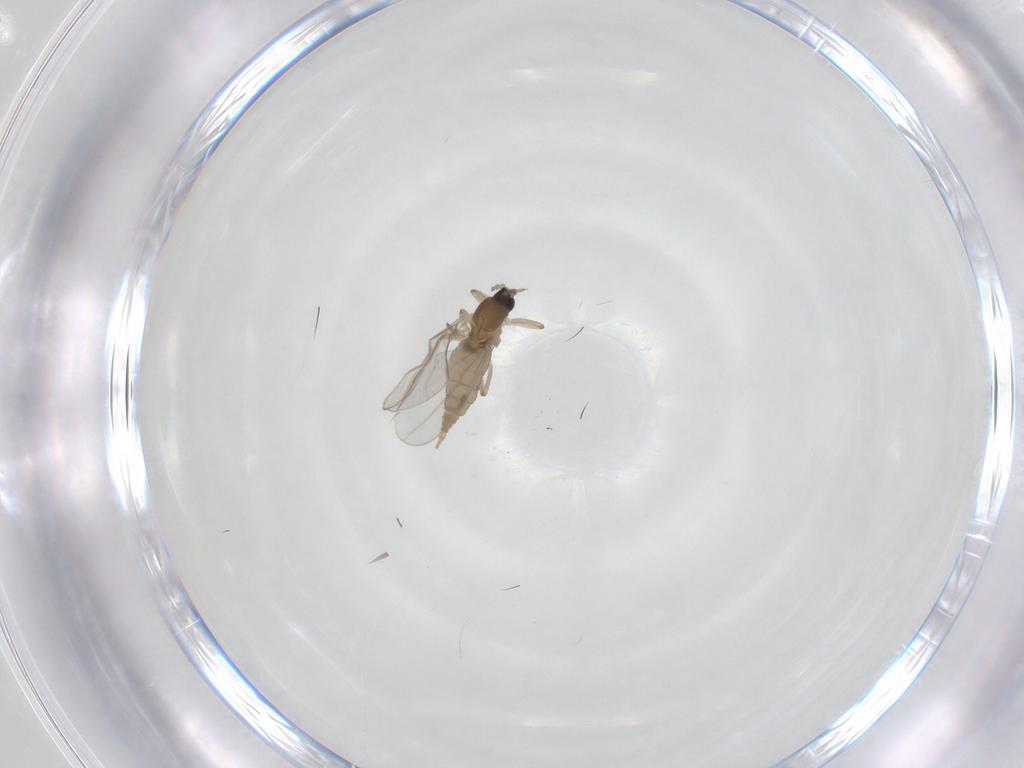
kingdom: Animalia
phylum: Arthropoda
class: Insecta
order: Diptera
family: Cecidomyiidae
